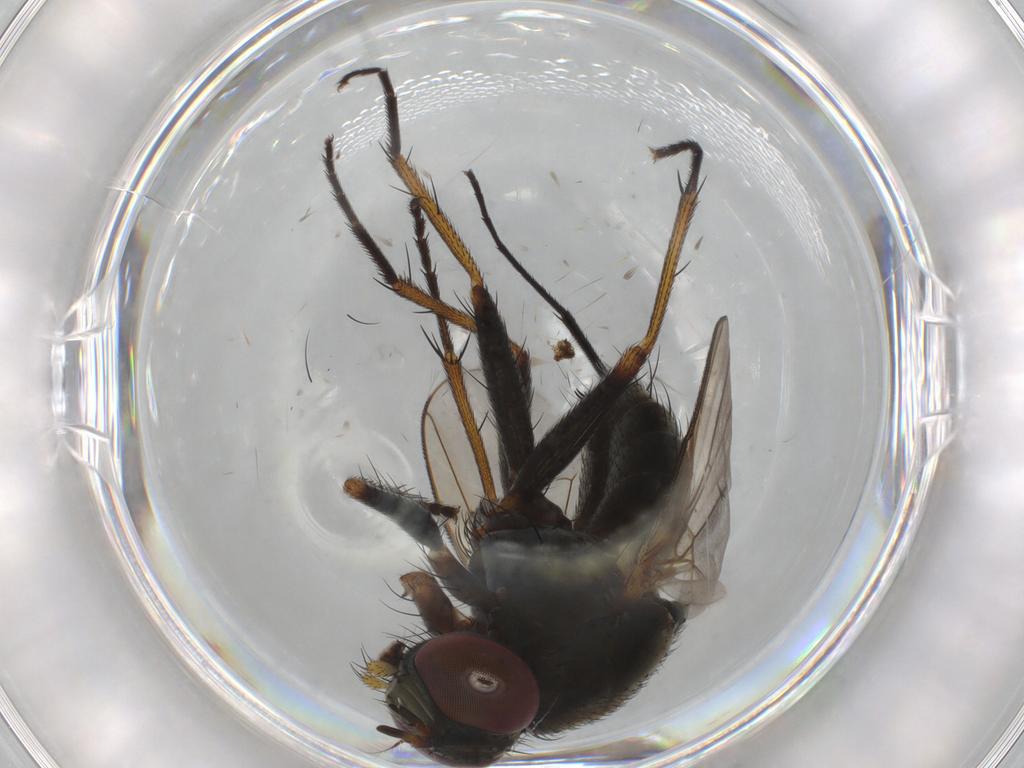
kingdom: Animalia
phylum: Arthropoda
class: Insecta
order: Diptera
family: Muscidae
